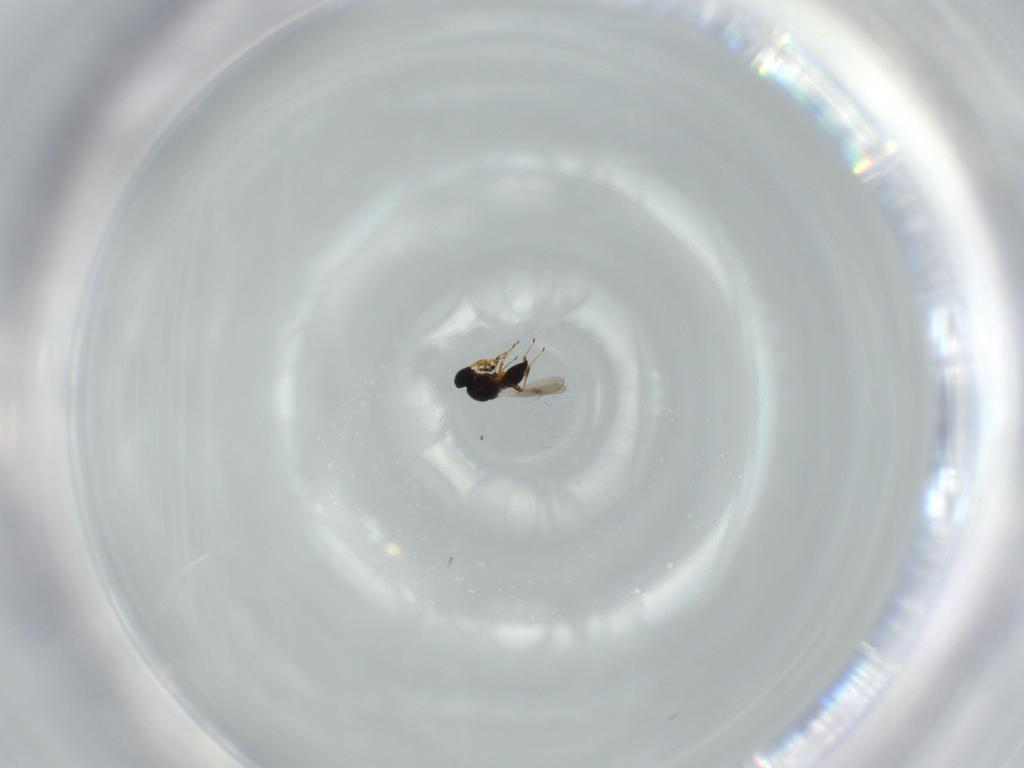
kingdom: Animalia
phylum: Arthropoda
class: Insecta
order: Hymenoptera
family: Platygastridae
